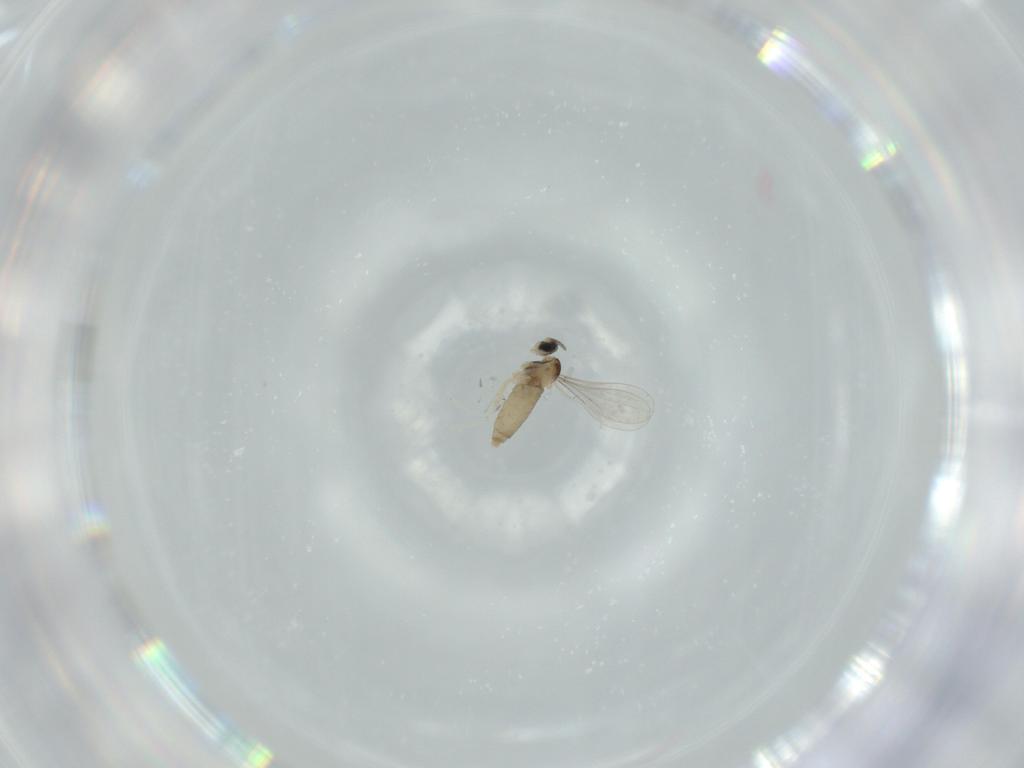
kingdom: Animalia
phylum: Arthropoda
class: Insecta
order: Diptera
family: Cecidomyiidae
